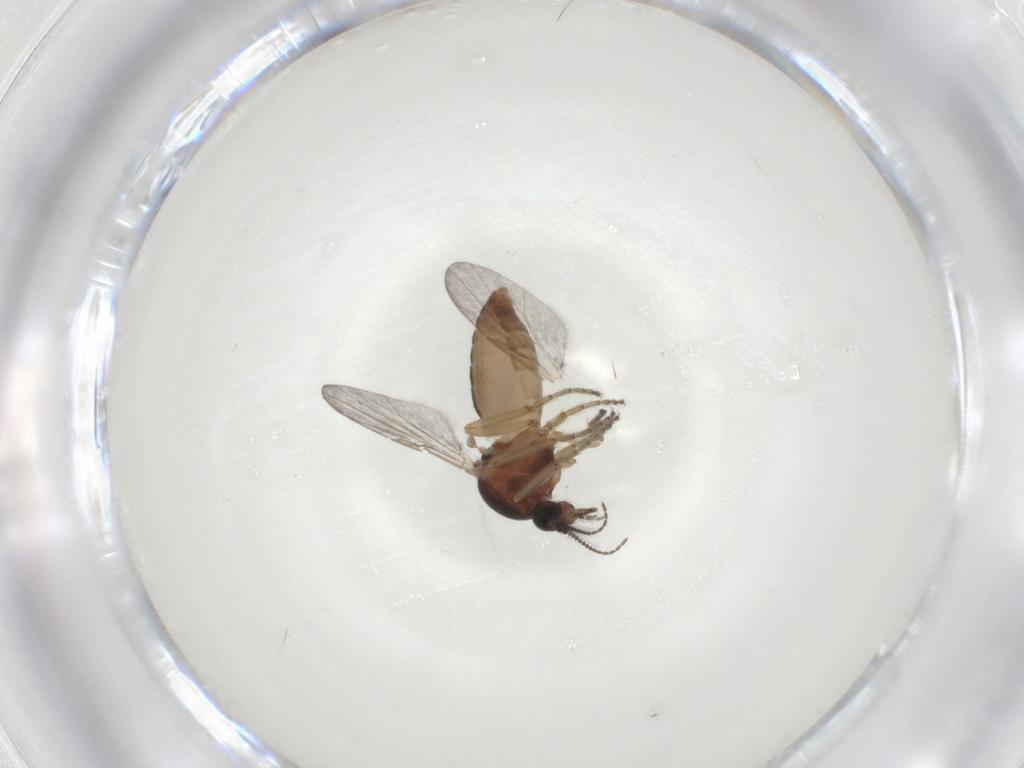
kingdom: Animalia
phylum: Arthropoda
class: Insecta
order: Diptera
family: Ceratopogonidae
